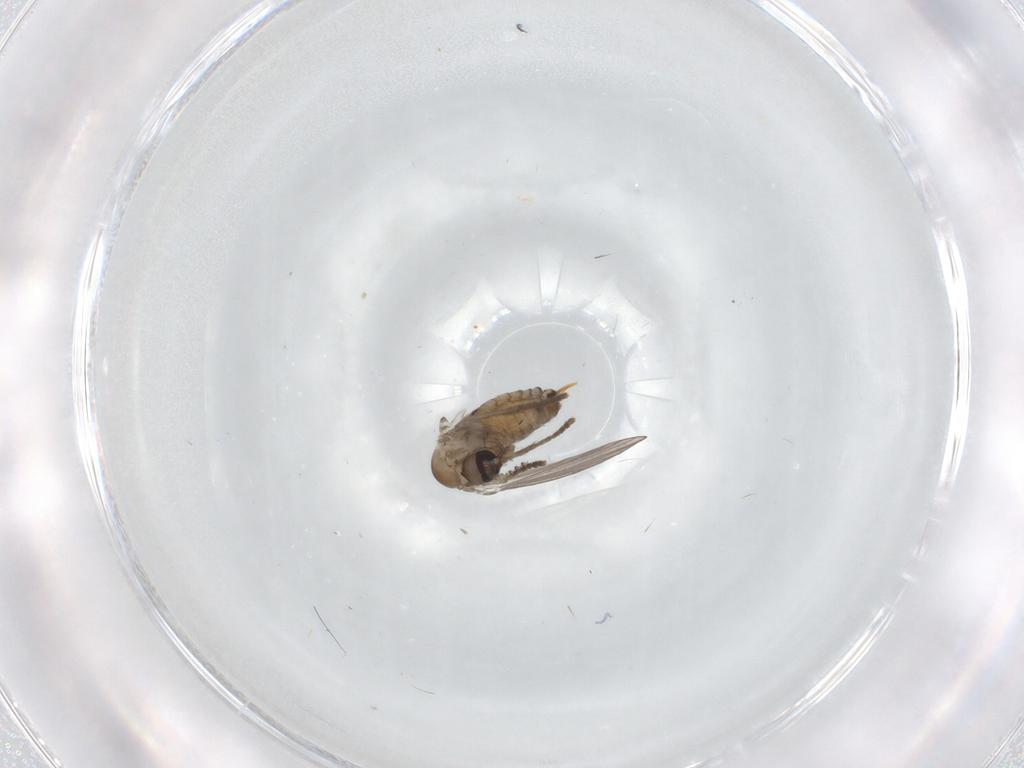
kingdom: Animalia
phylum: Arthropoda
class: Insecta
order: Diptera
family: Psychodidae
